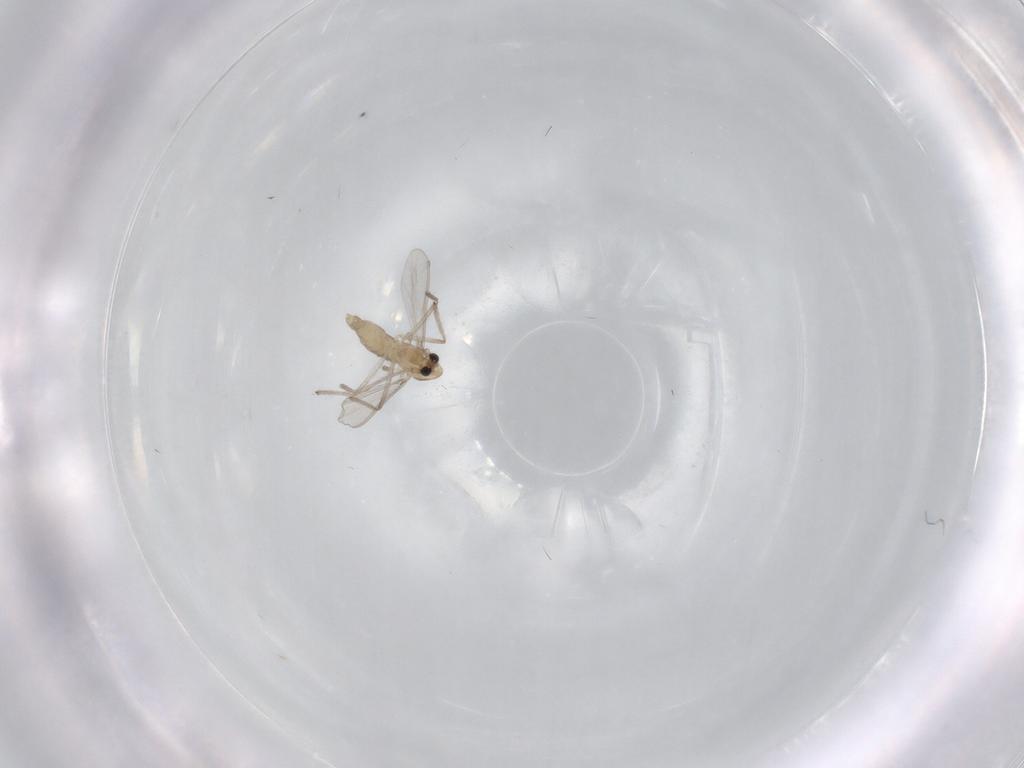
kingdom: Animalia
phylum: Arthropoda
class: Insecta
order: Diptera
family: Chironomidae
